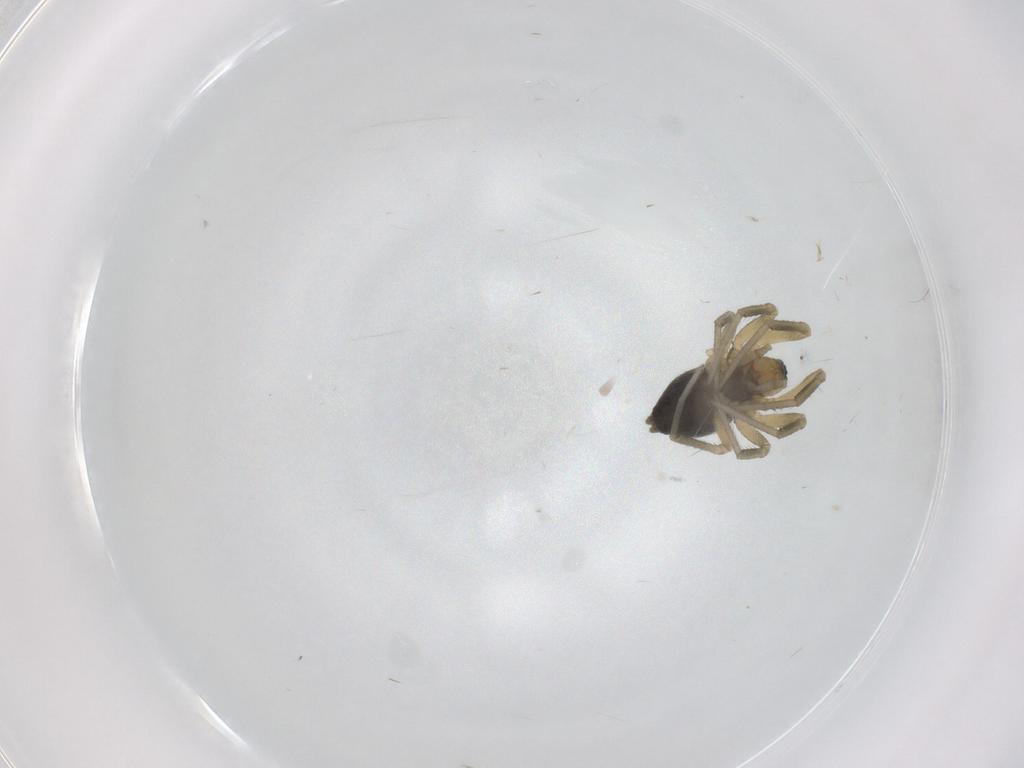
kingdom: Animalia
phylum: Arthropoda
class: Arachnida
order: Araneae
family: Linyphiidae
